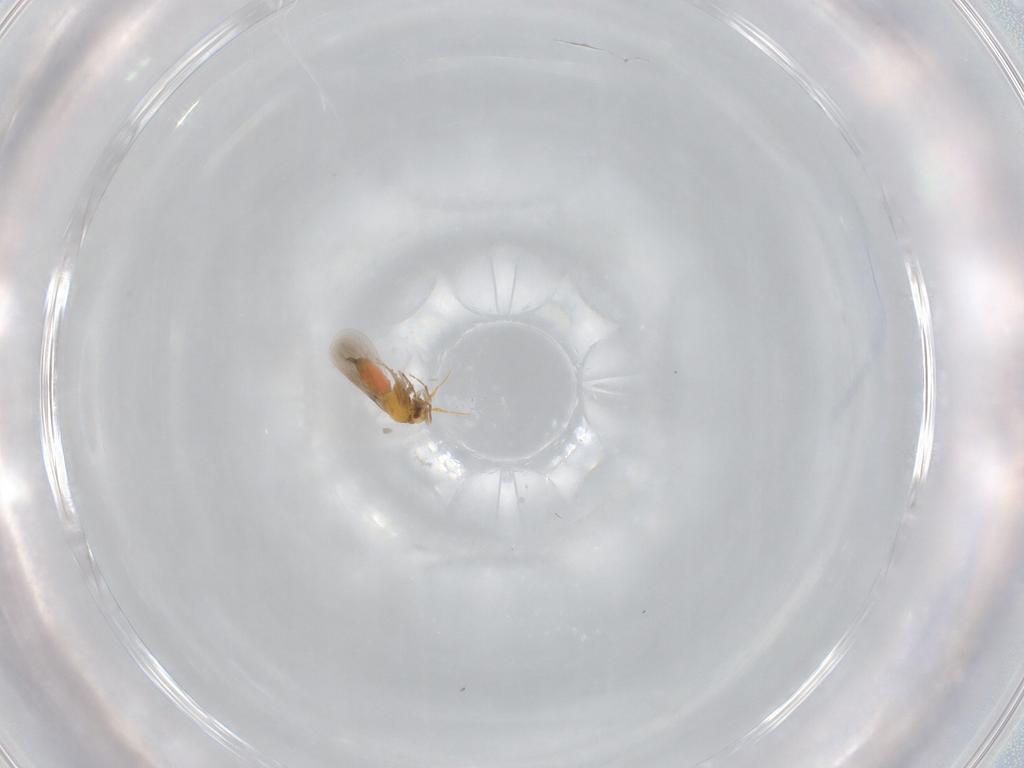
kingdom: Animalia
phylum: Arthropoda
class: Insecta
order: Hemiptera
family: Aleyrodidae
